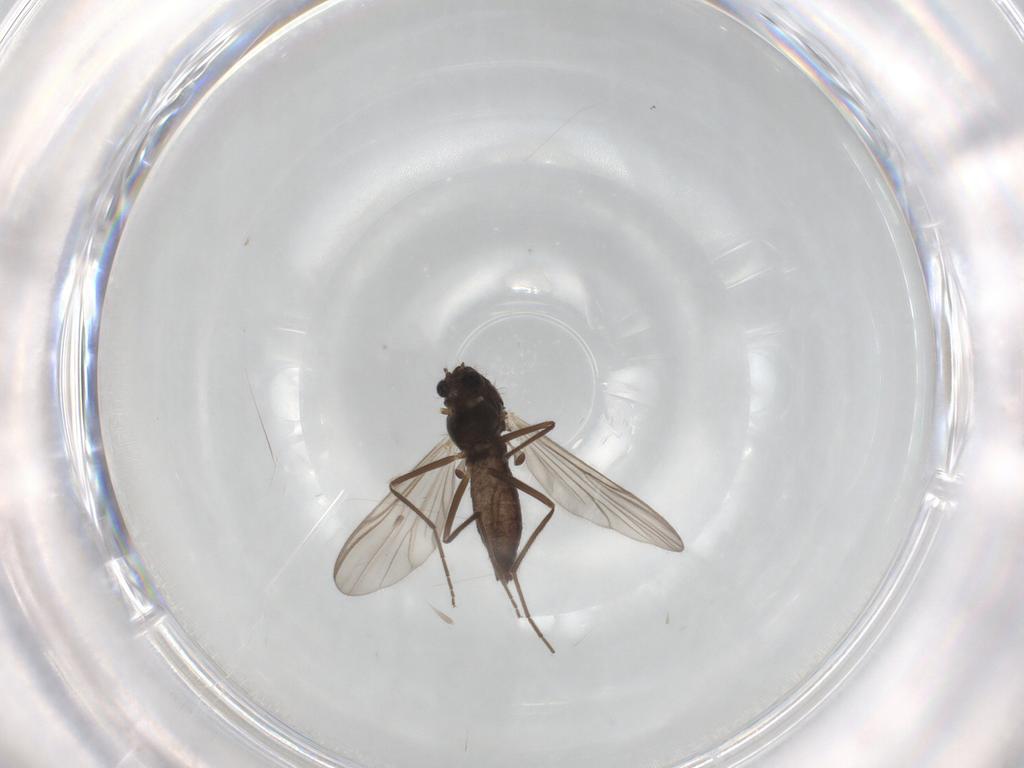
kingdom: Animalia
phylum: Arthropoda
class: Insecta
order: Diptera
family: Chironomidae
